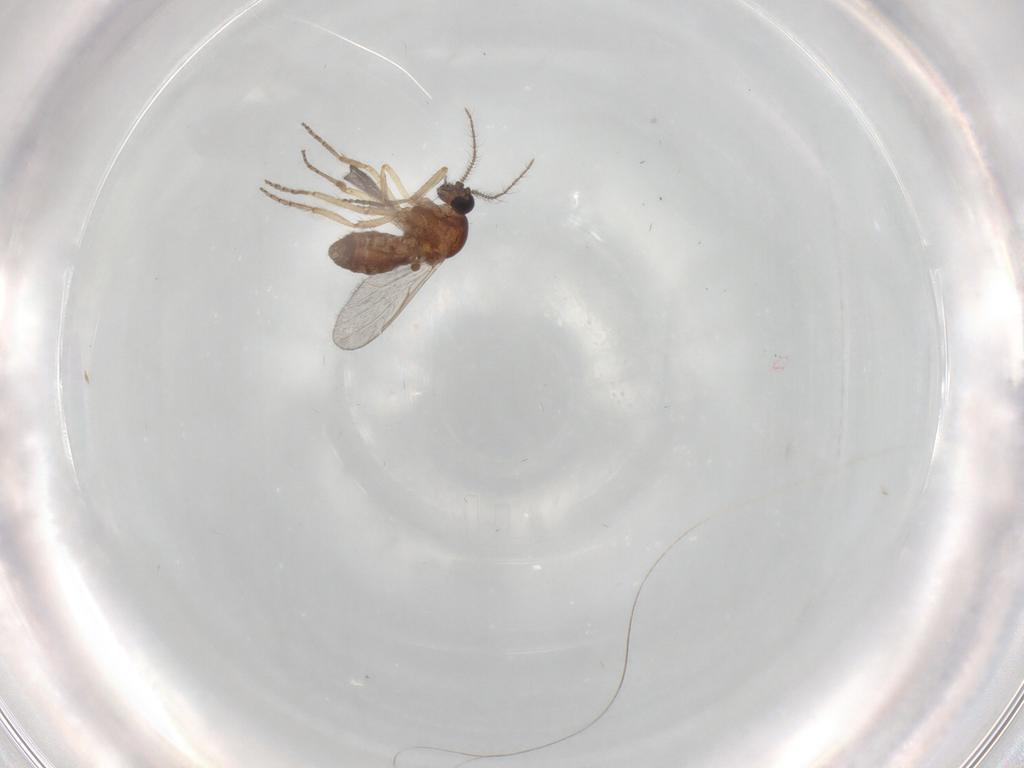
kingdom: Animalia
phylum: Arthropoda
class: Insecta
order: Diptera
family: Ceratopogonidae
